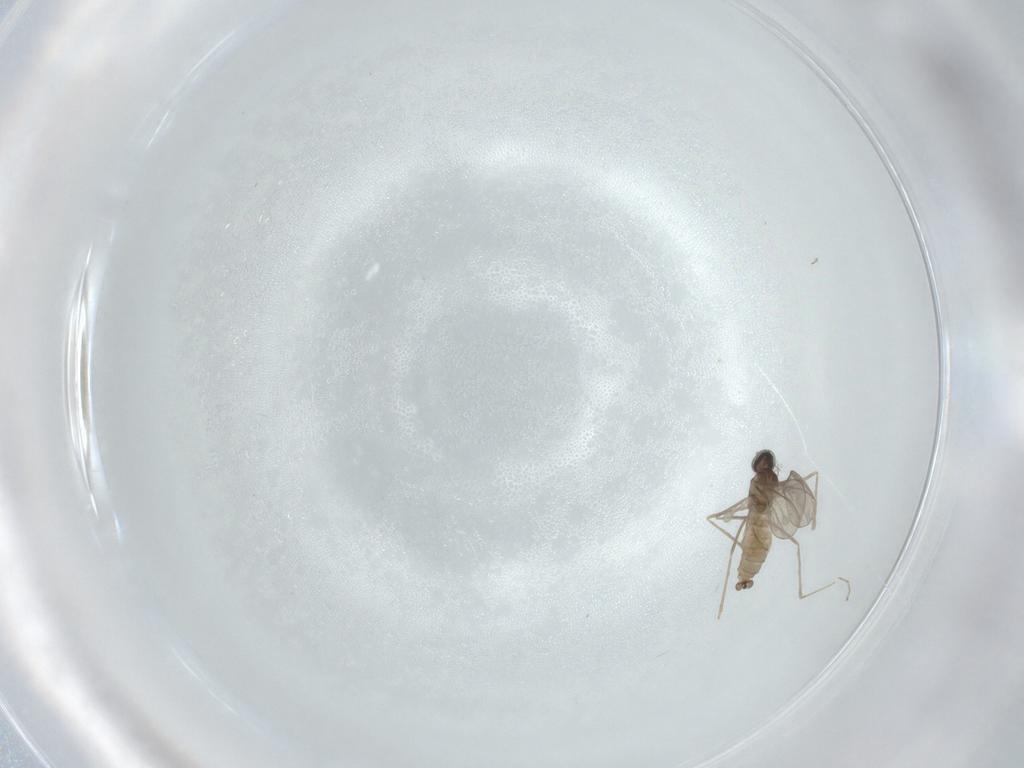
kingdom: Animalia
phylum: Arthropoda
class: Insecta
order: Diptera
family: Cecidomyiidae
